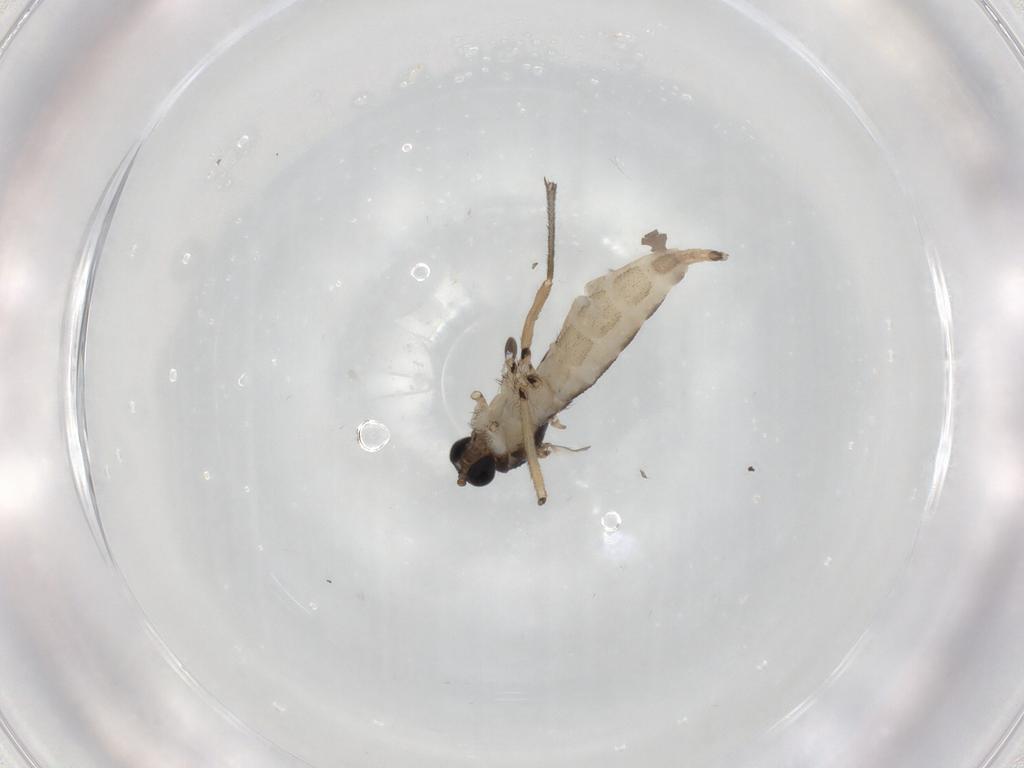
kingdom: Animalia
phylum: Arthropoda
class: Insecta
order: Diptera
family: Sciaridae
